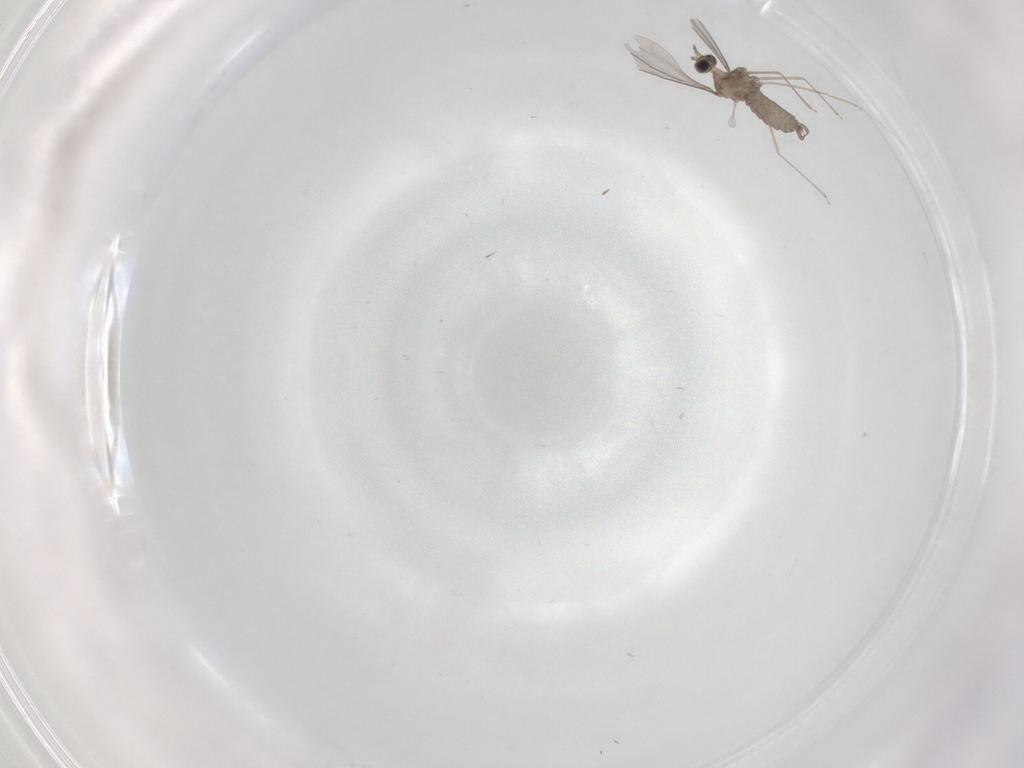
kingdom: Animalia
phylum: Arthropoda
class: Insecta
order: Diptera
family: Cecidomyiidae
